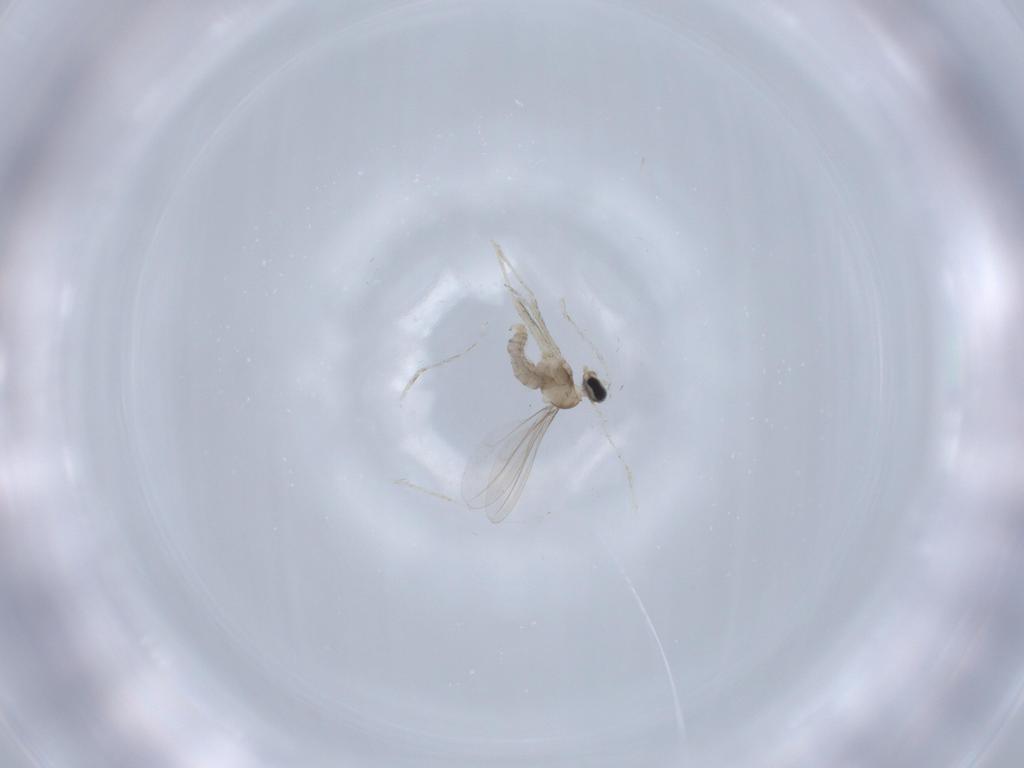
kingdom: Animalia
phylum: Arthropoda
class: Insecta
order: Diptera
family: Cecidomyiidae
